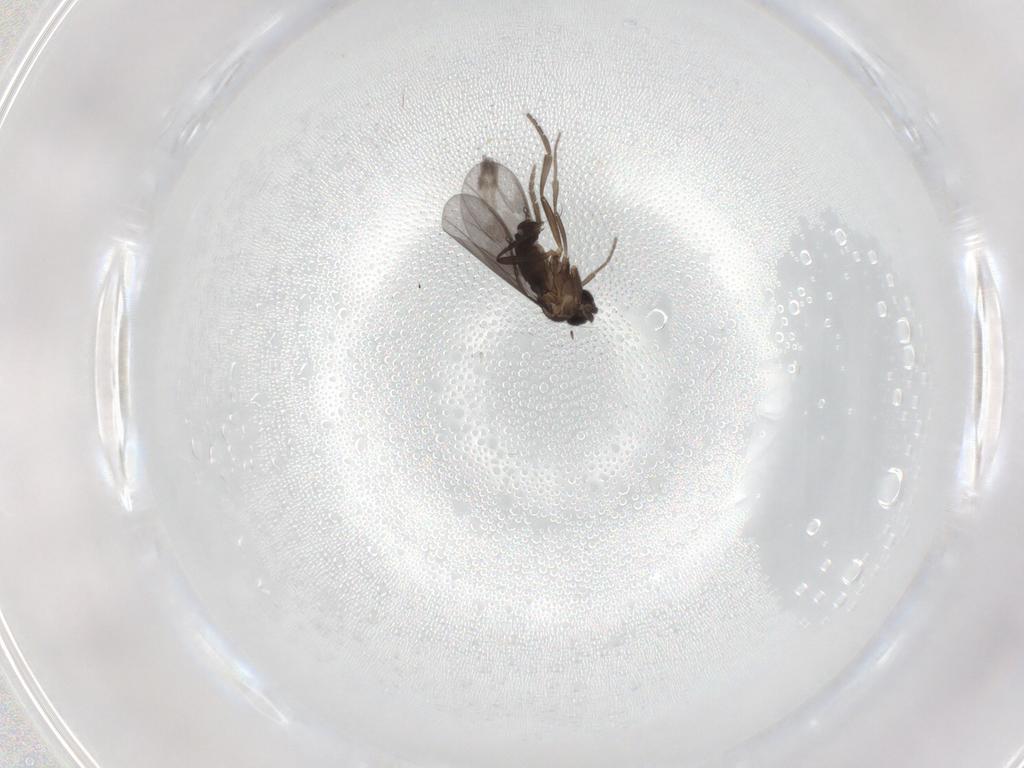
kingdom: Animalia
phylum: Arthropoda
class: Insecta
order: Diptera
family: Phoridae
